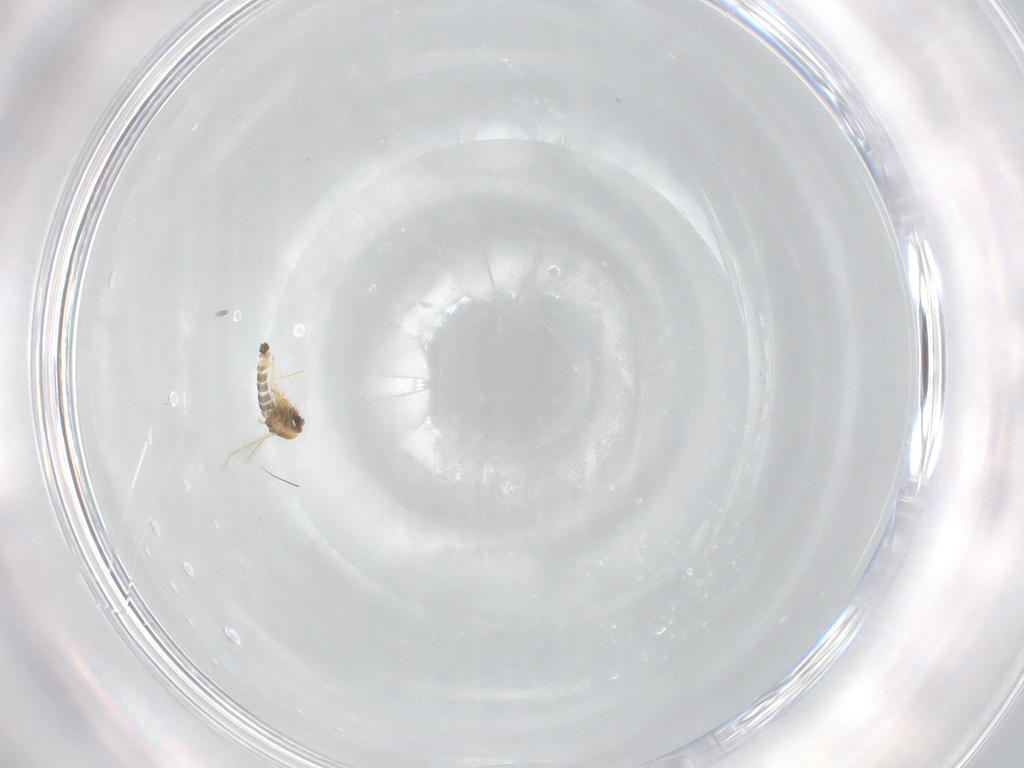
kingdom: Animalia
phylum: Arthropoda
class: Insecta
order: Diptera
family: Chironomidae
